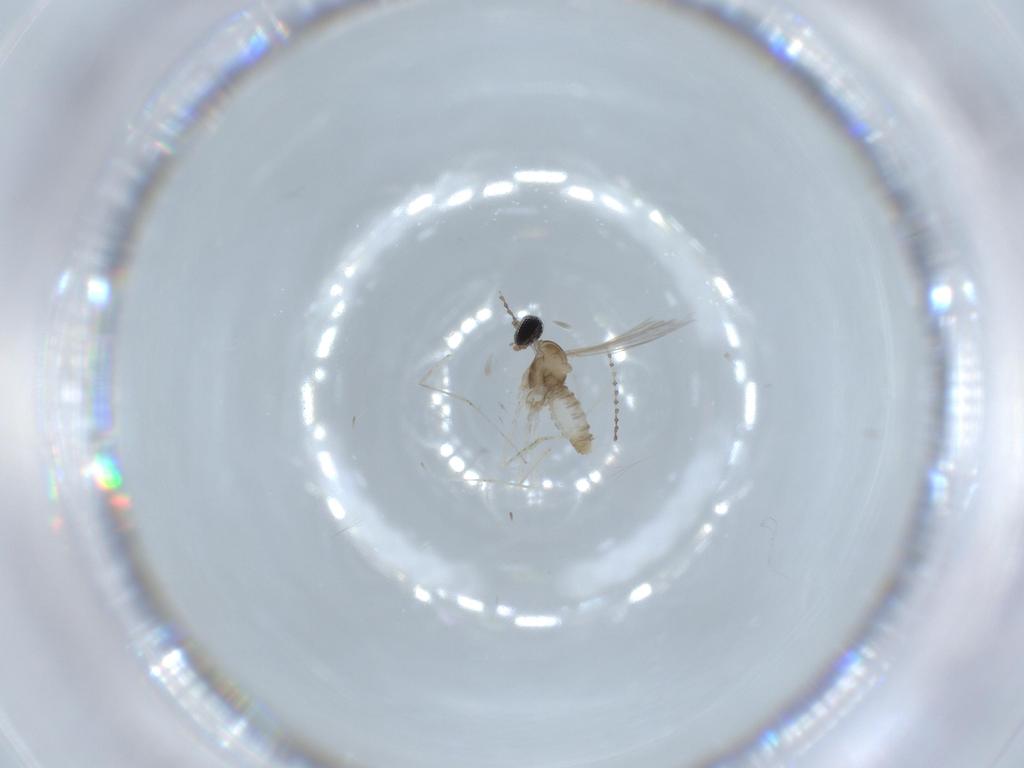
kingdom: Animalia
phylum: Arthropoda
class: Insecta
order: Diptera
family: Cecidomyiidae
